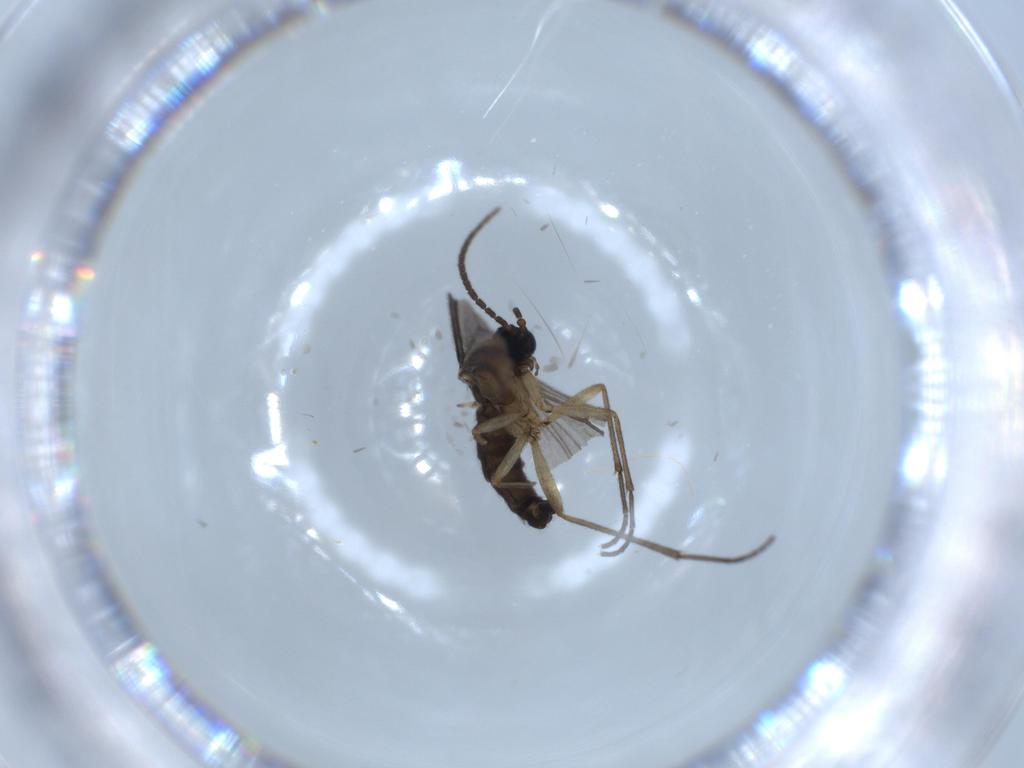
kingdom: Animalia
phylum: Arthropoda
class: Insecta
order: Diptera
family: Sciaridae
